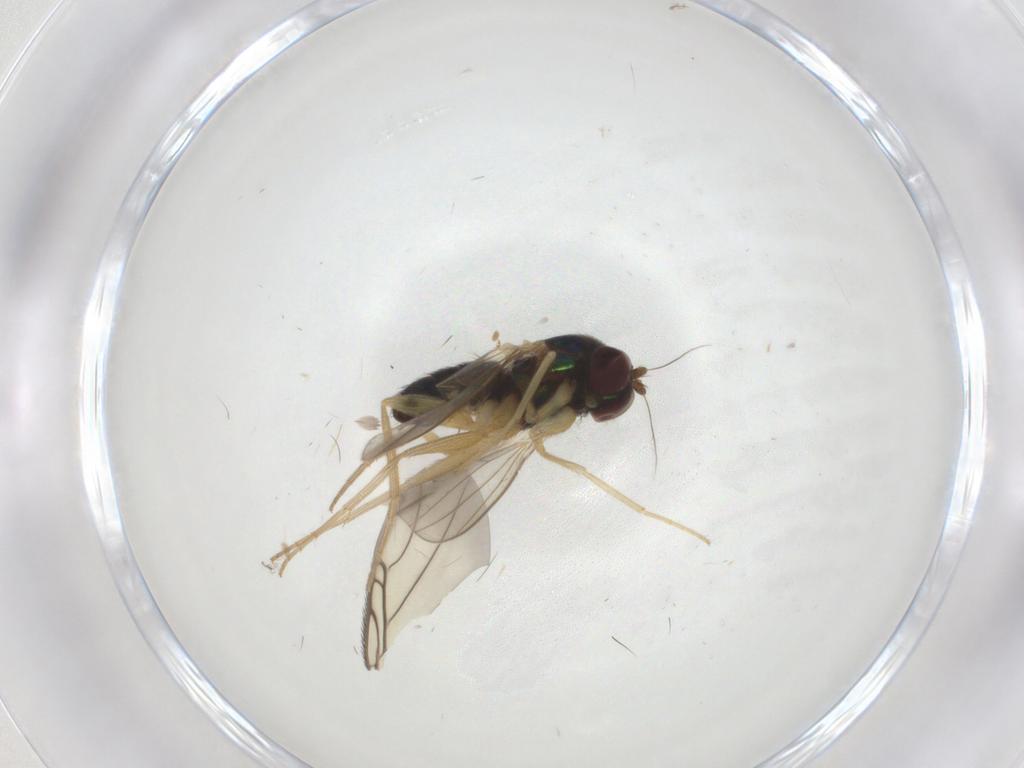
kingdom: Animalia
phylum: Arthropoda
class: Insecta
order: Diptera
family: Dolichopodidae
